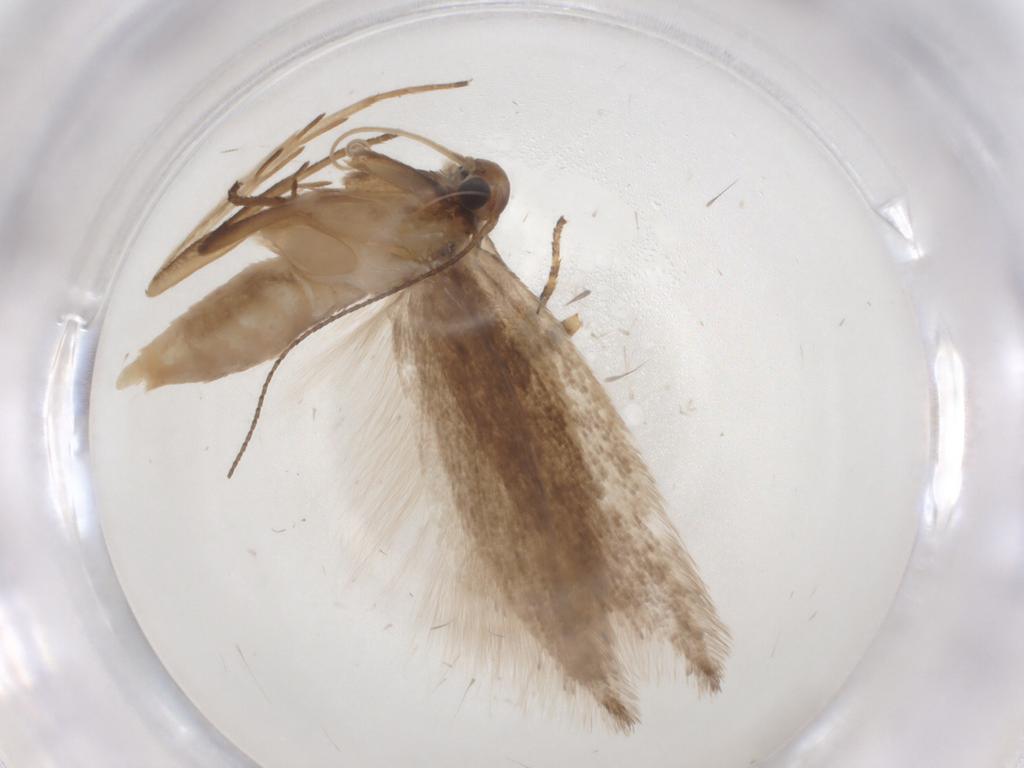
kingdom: Animalia
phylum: Arthropoda
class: Insecta
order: Lepidoptera
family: Gelechiidae
